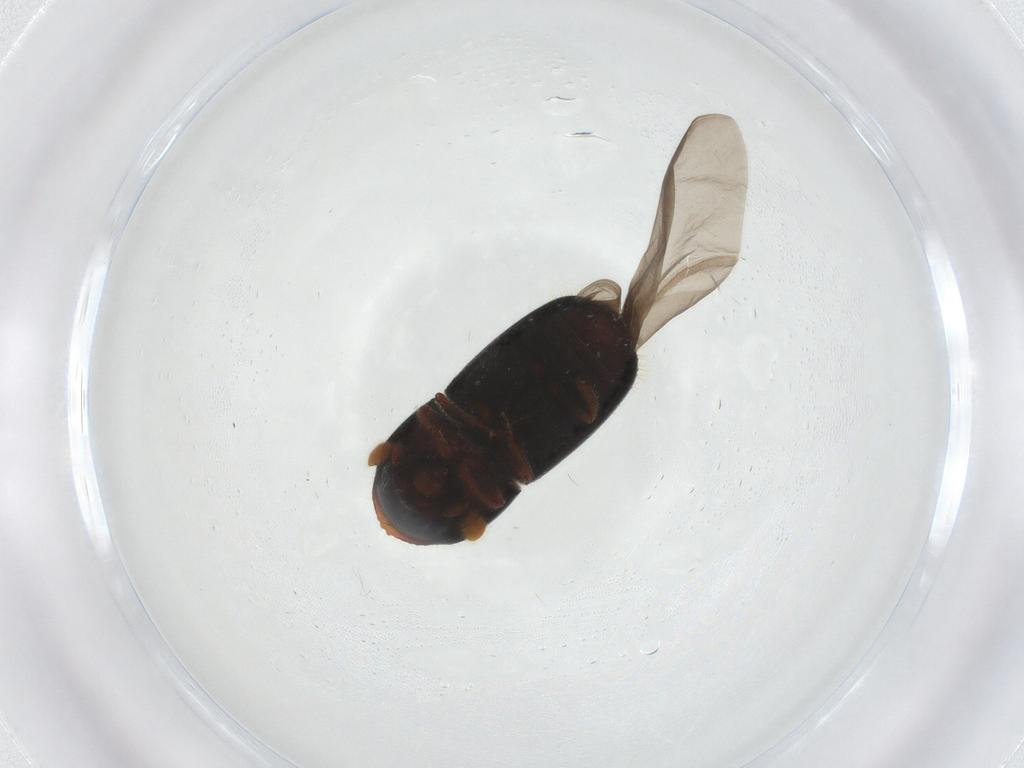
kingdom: Animalia
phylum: Arthropoda
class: Insecta
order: Coleoptera
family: Curculionidae
